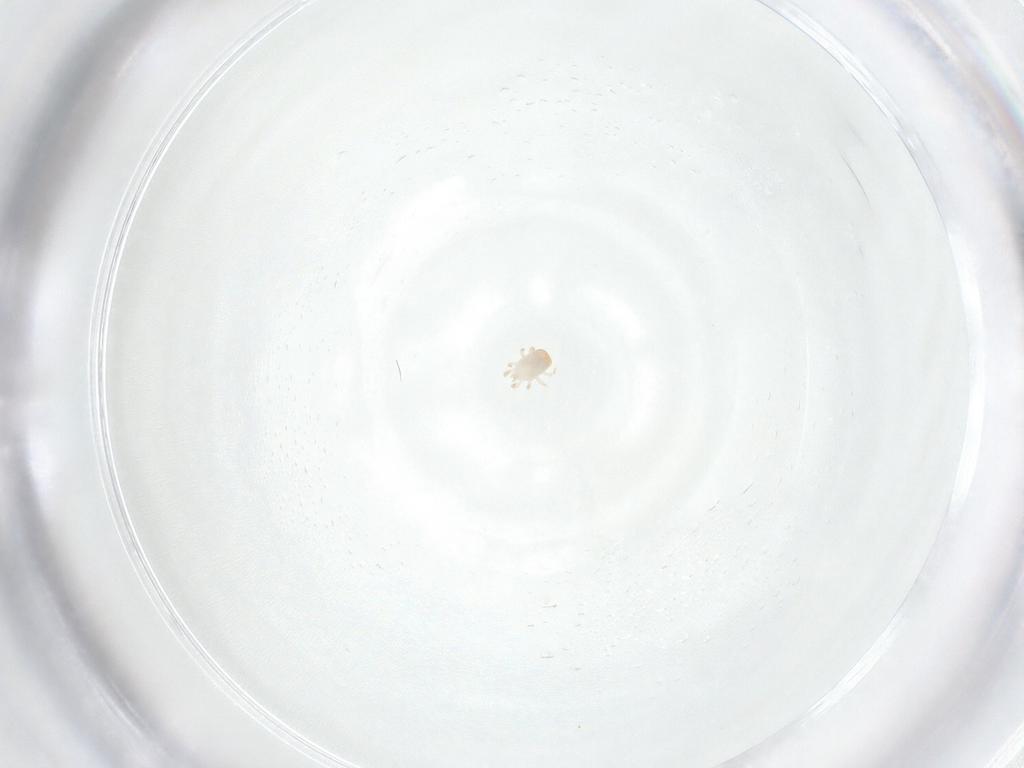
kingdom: Animalia
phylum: Arthropoda
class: Arachnida
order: Mesostigmata
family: Zerconidae
